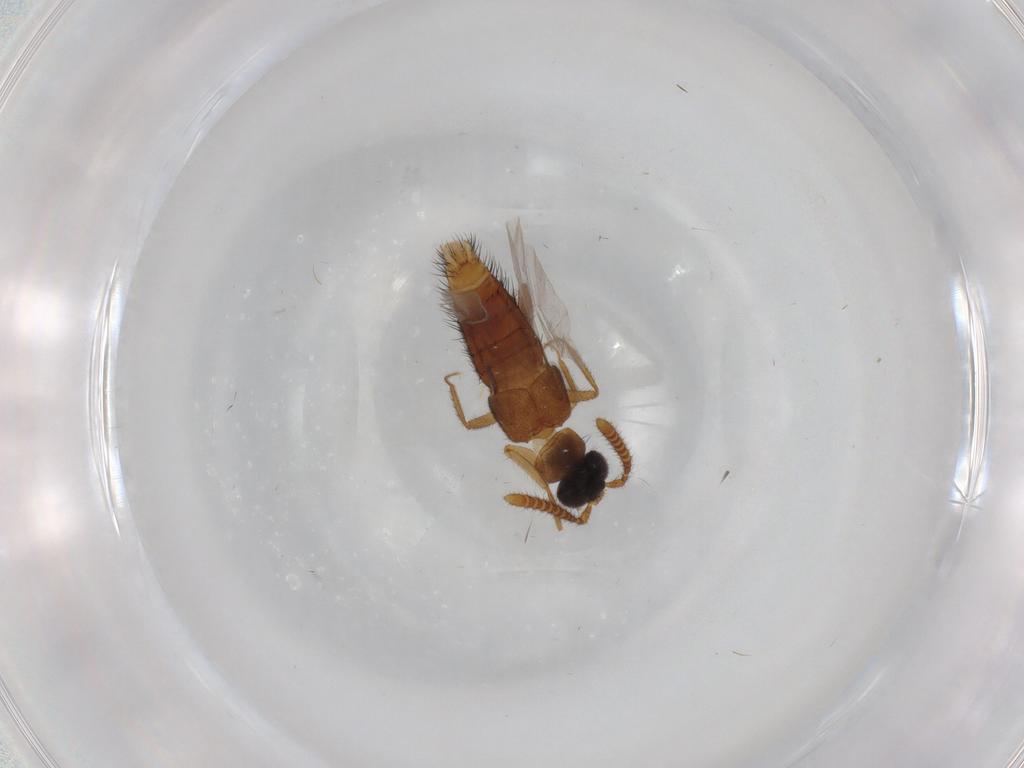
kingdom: Animalia
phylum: Arthropoda
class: Insecta
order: Coleoptera
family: Staphylinidae
